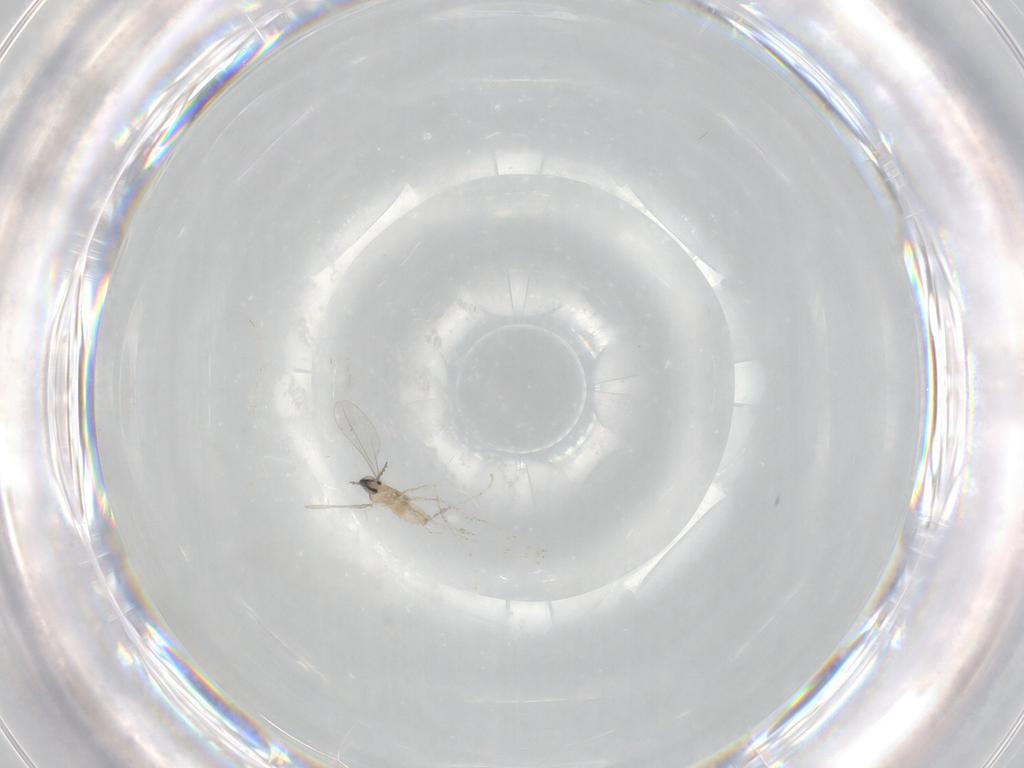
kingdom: Animalia
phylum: Arthropoda
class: Insecta
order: Diptera
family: Cecidomyiidae
